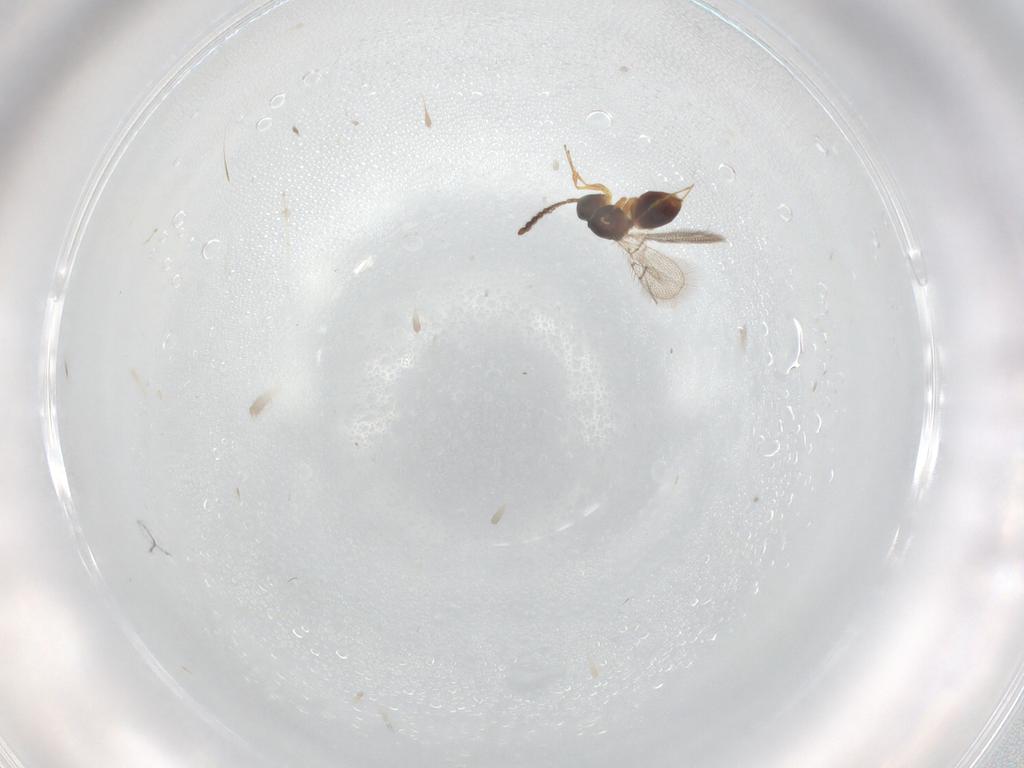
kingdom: Animalia
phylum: Arthropoda
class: Insecta
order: Hymenoptera
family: Figitidae
